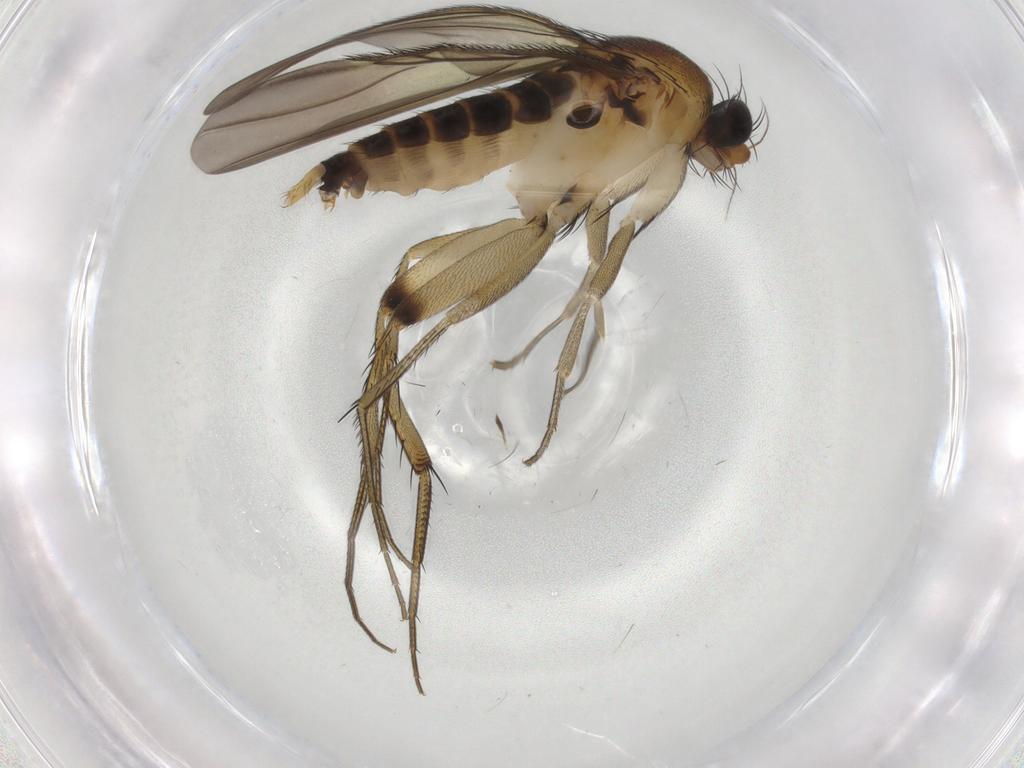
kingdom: Animalia
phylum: Arthropoda
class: Insecta
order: Diptera
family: Phoridae
